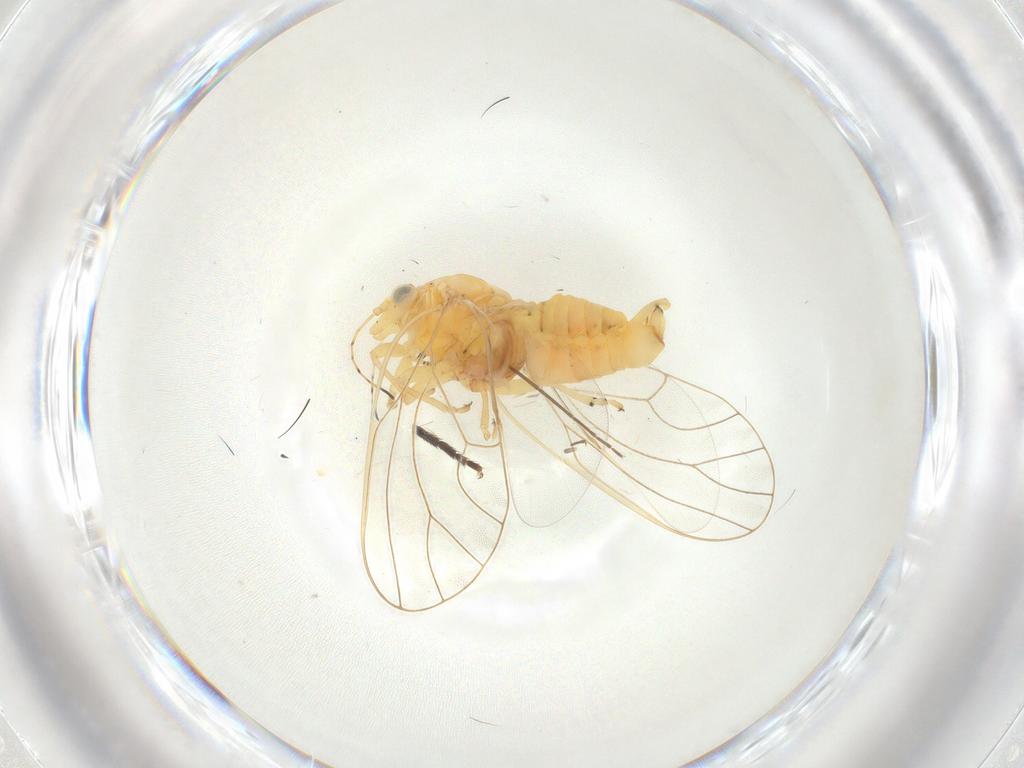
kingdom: Animalia
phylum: Arthropoda
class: Insecta
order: Hemiptera
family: Psyllidae
